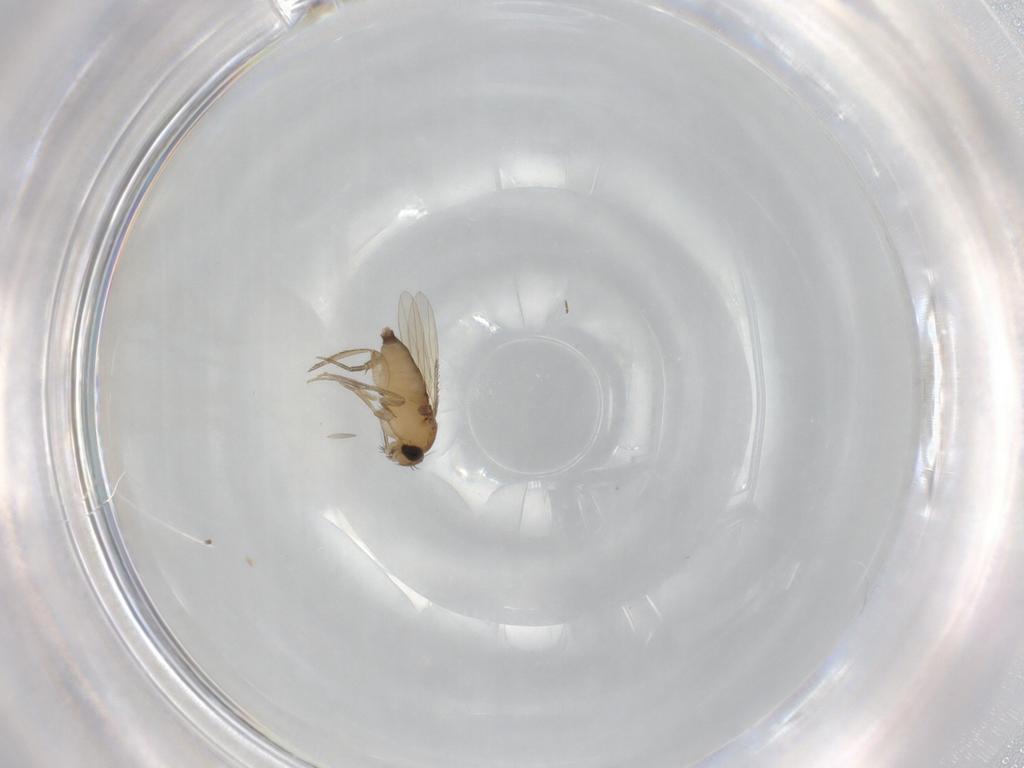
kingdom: Animalia
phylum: Arthropoda
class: Insecta
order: Diptera
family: Phoridae
